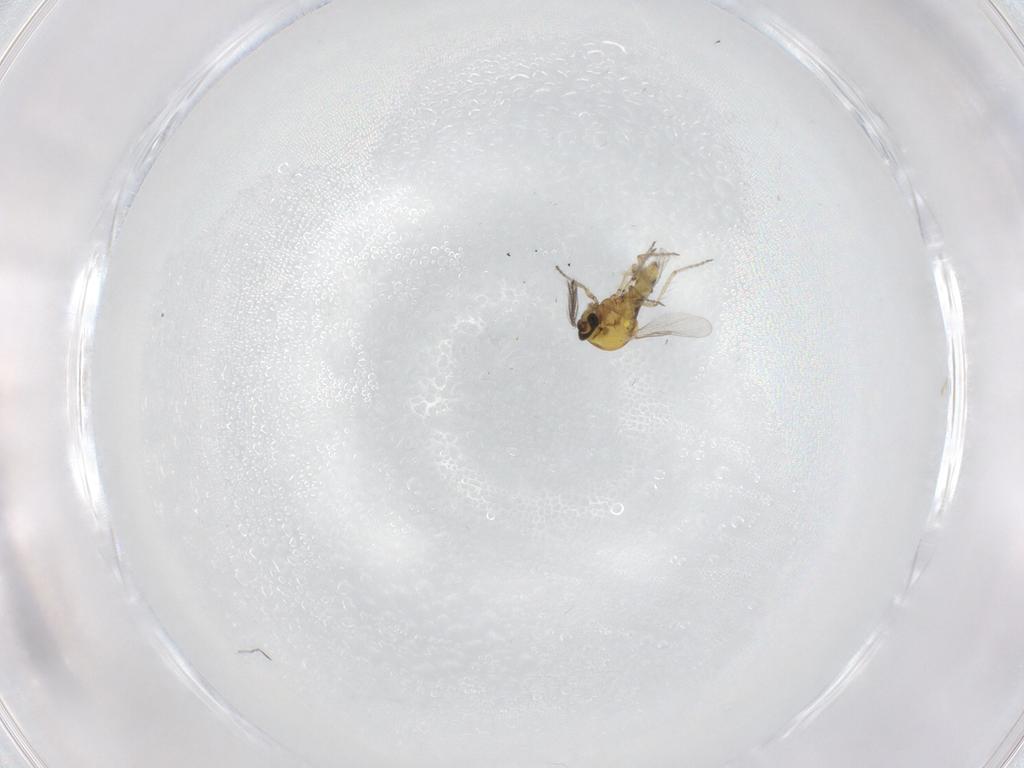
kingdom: Animalia
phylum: Arthropoda
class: Insecta
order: Diptera
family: Ceratopogonidae
